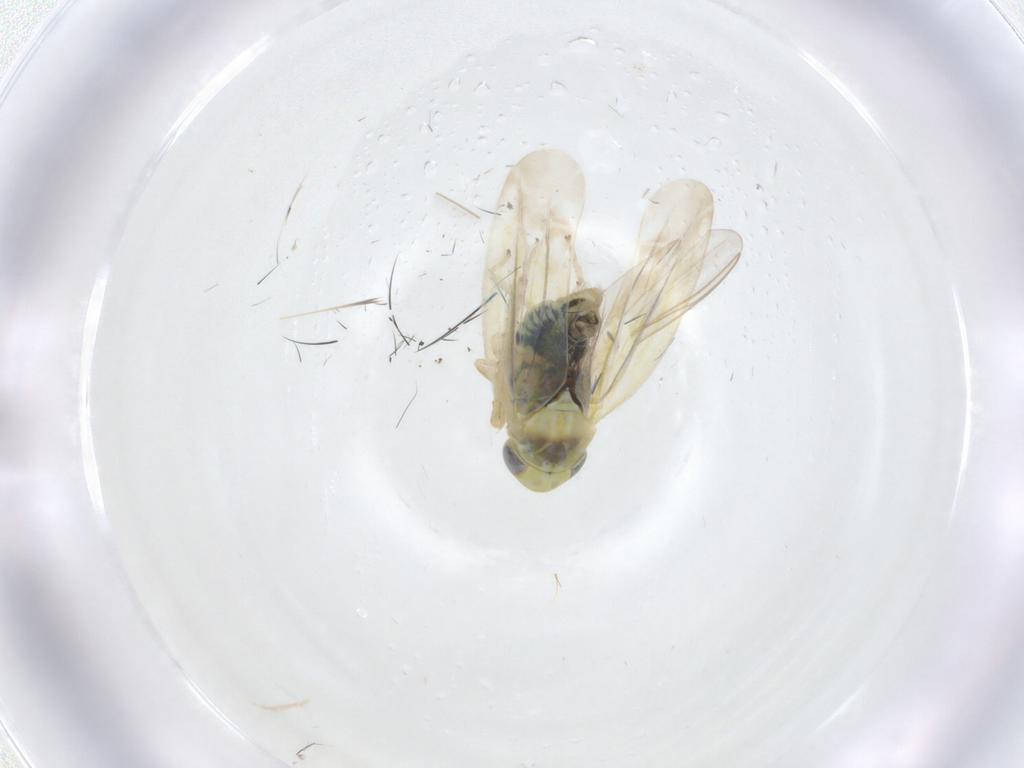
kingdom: Animalia
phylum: Arthropoda
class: Insecta
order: Hemiptera
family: Cicadellidae
